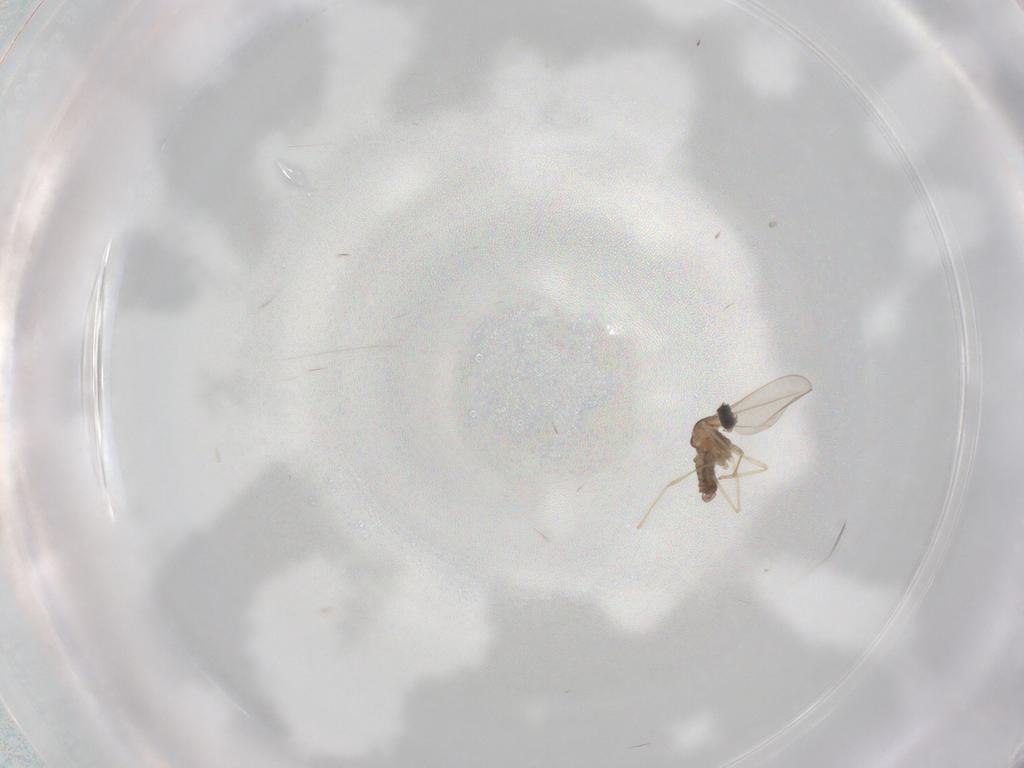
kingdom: Animalia
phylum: Arthropoda
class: Insecta
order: Diptera
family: Cecidomyiidae
